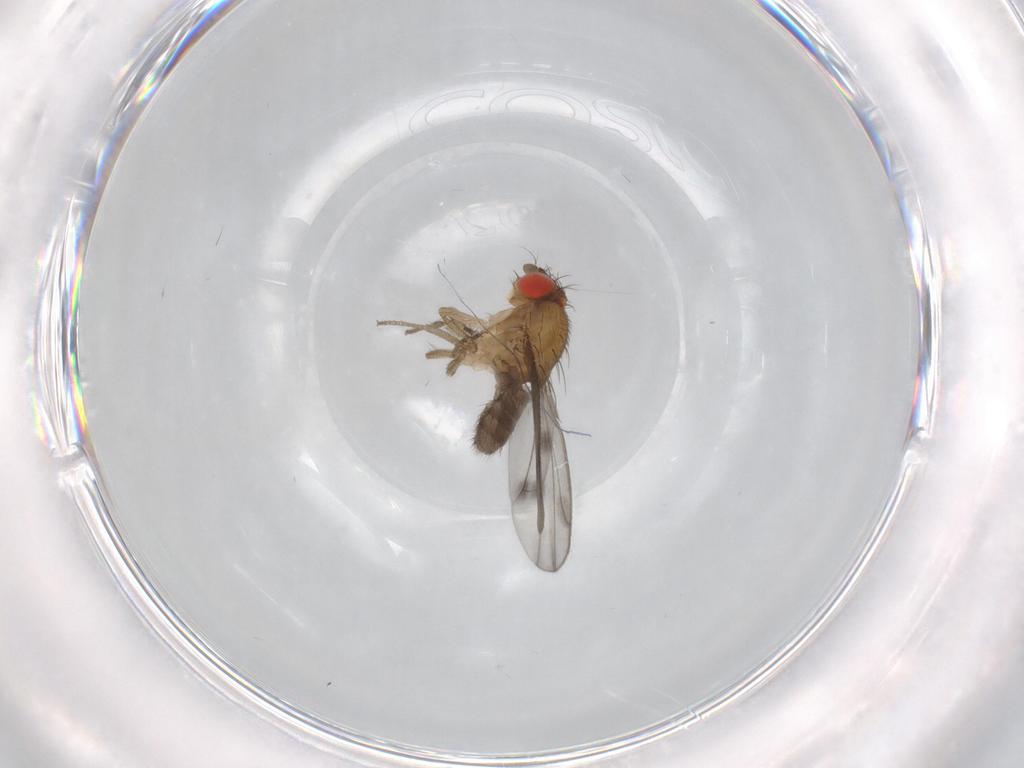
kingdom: Animalia
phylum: Arthropoda
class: Insecta
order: Diptera
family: Drosophilidae
